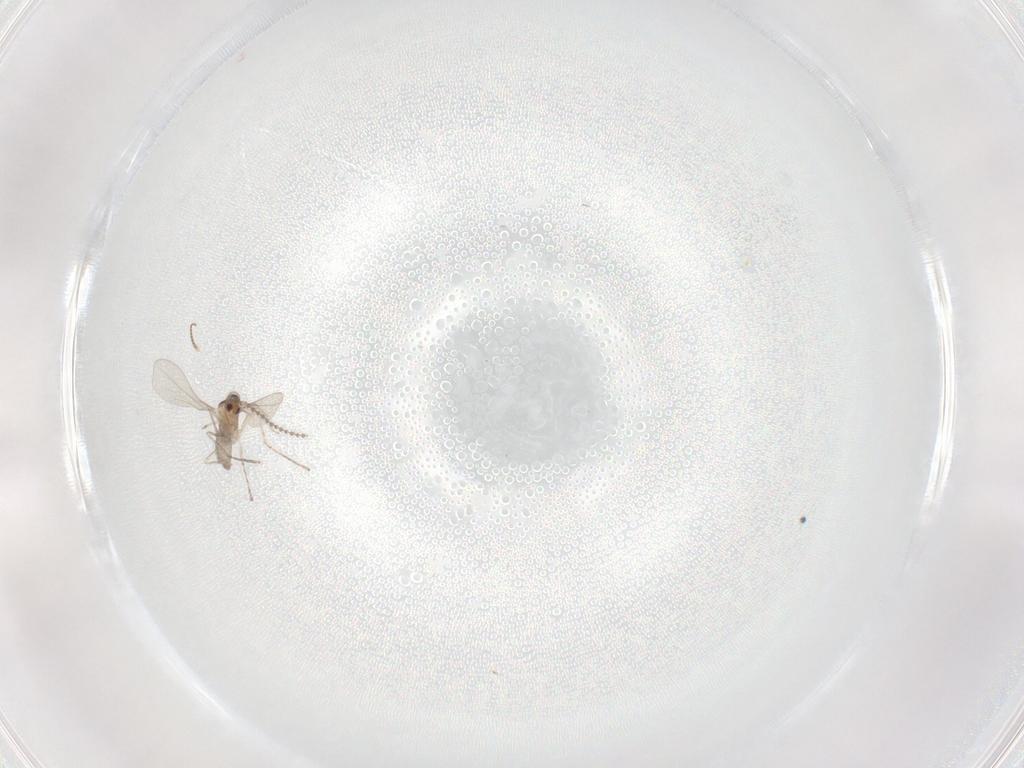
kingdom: Animalia
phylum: Arthropoda
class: Insecta
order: Diptera
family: Cecidomyiidae
